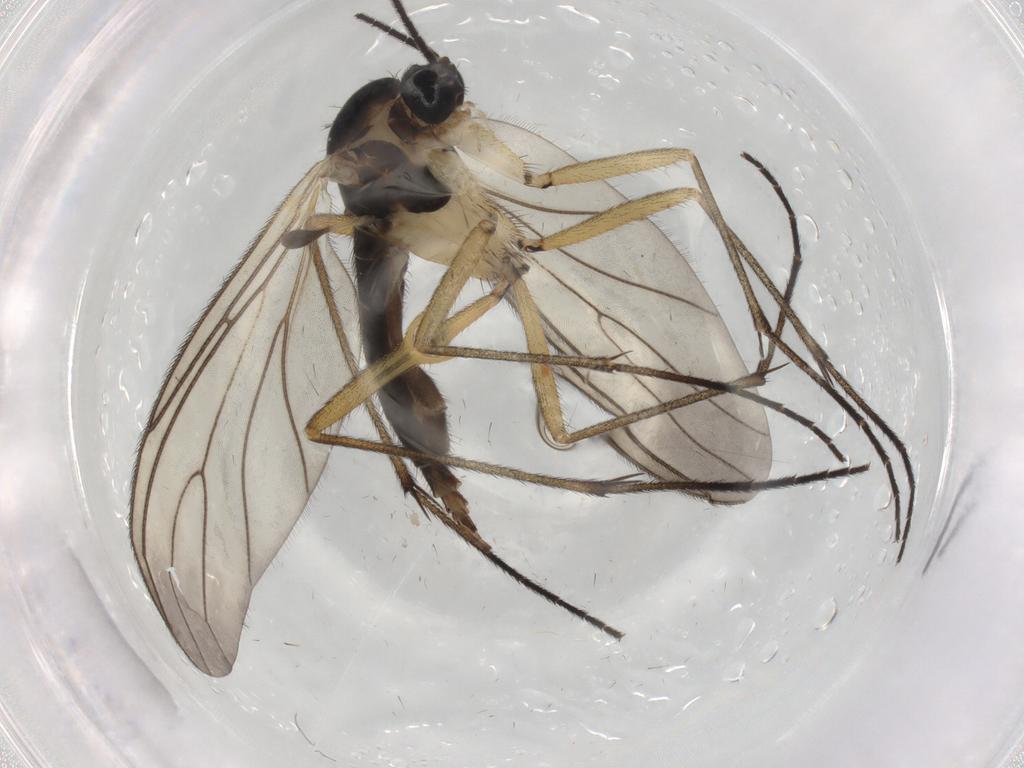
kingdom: Animalia
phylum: Arthropoda
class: Insecta
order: Diptera
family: Sciaridae
